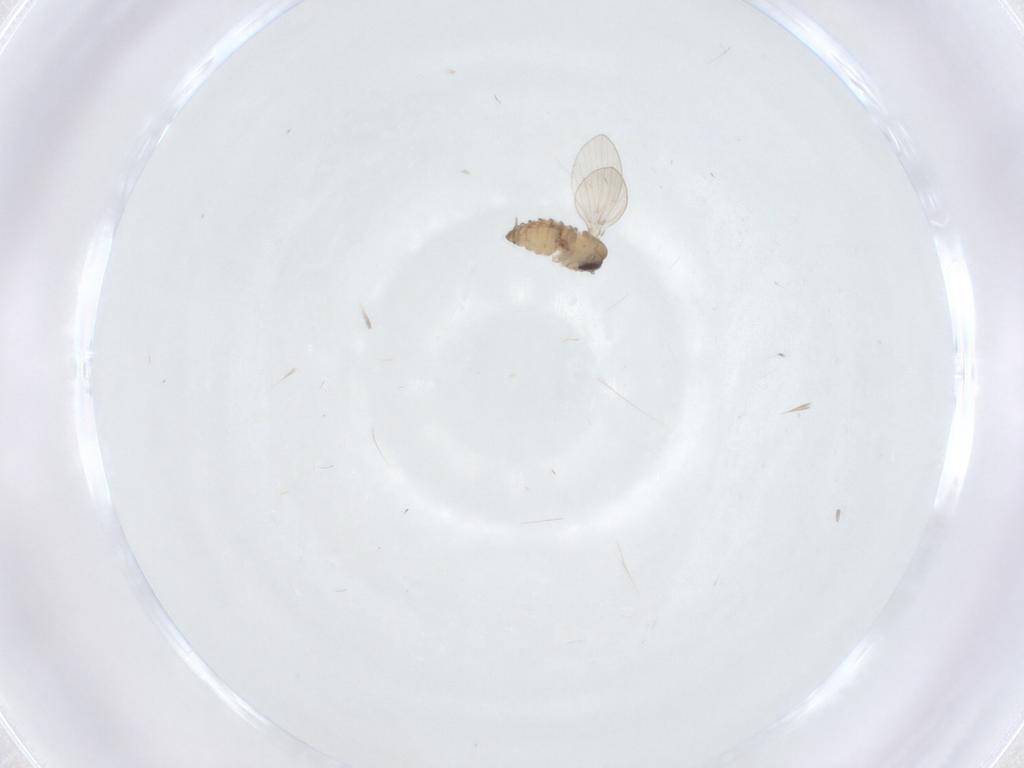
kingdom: Animalia
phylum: Arthropoda
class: Insecta
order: Diptera
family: Psychodidae
